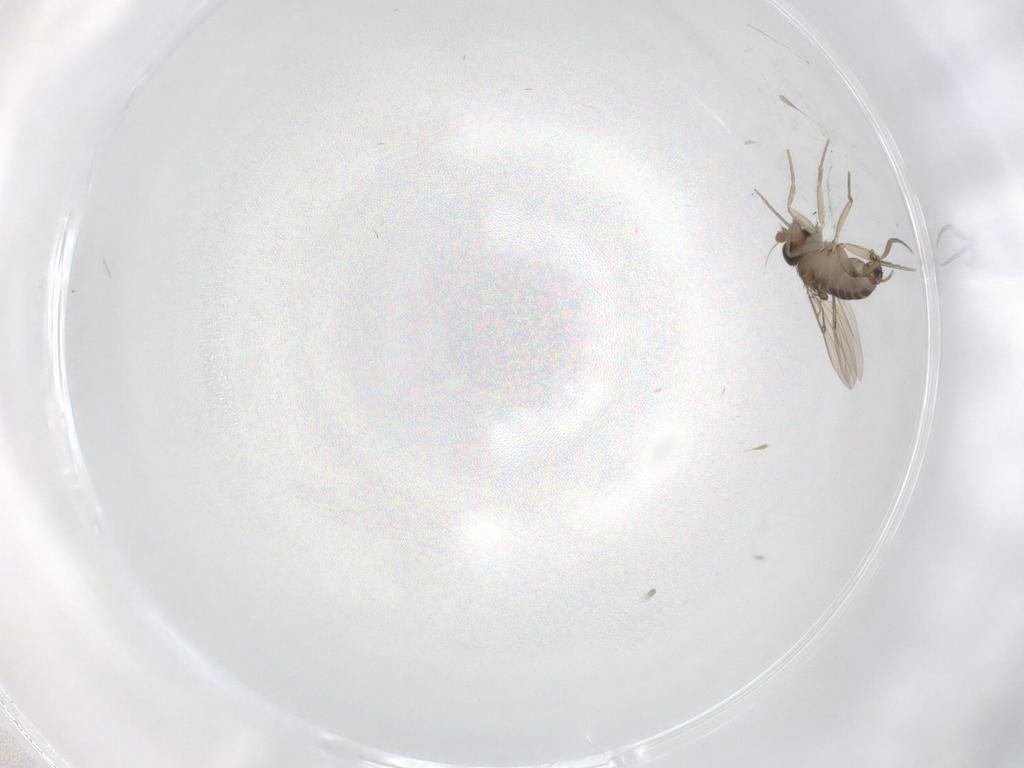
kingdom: Animalia
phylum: Arthropoda
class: Insecta
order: Diptera
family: Phoridae
